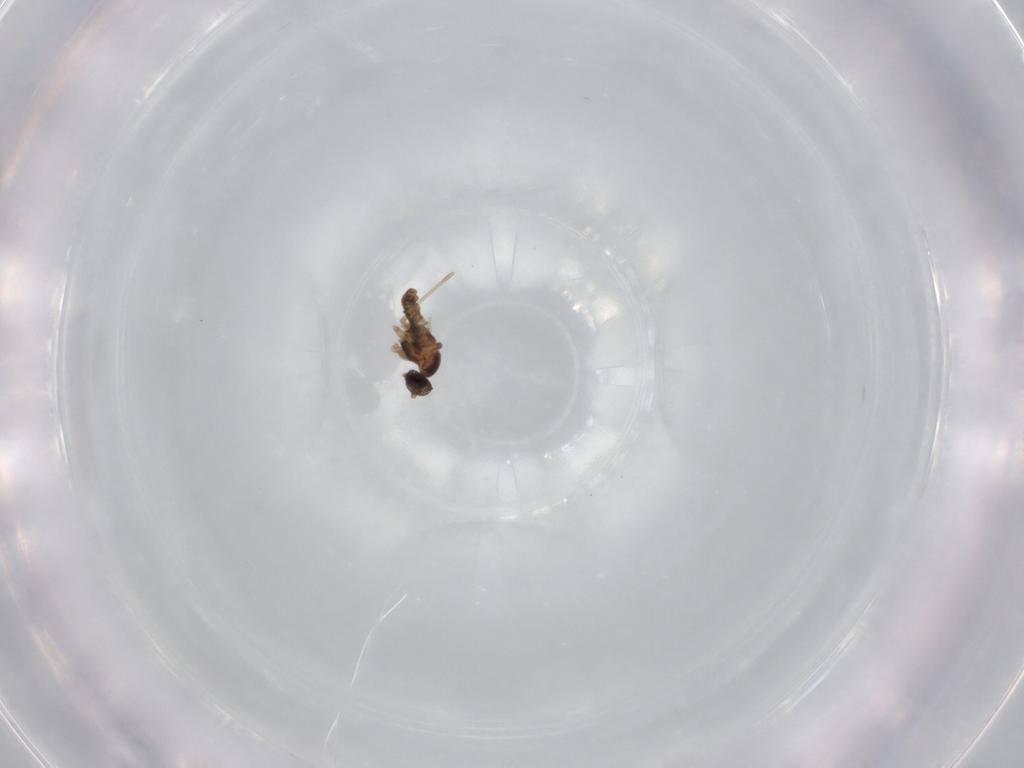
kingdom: Animalia
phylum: Arthropoda
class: Insecta
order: Diptera
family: Cecidomyiidae
